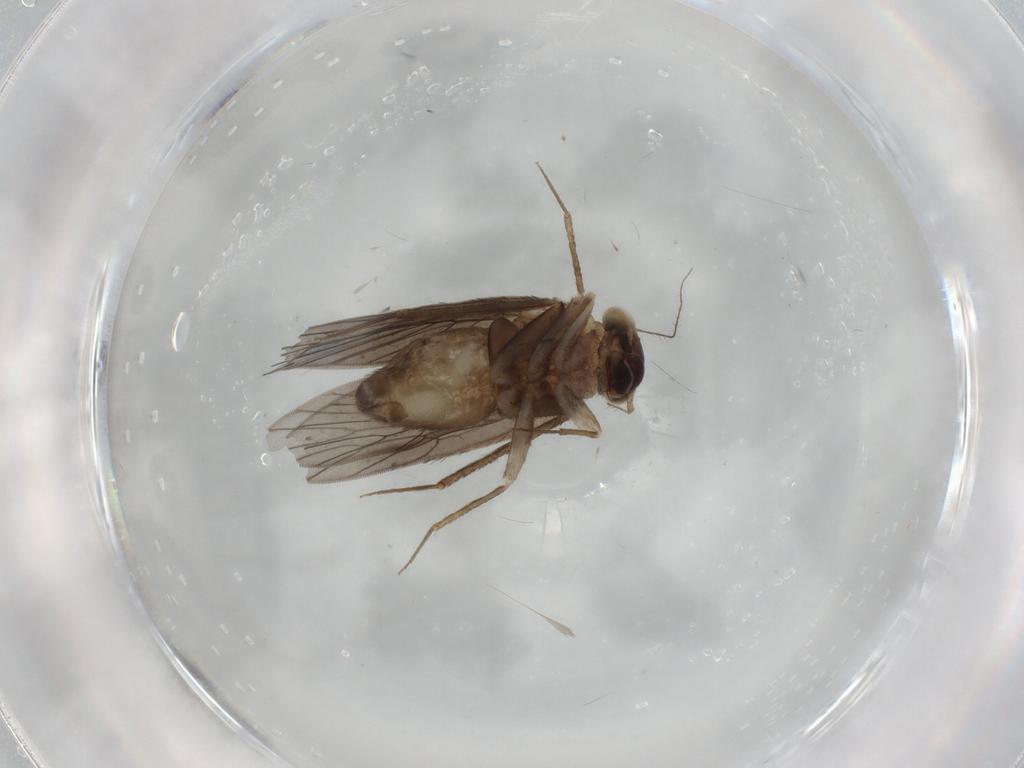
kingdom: Animalia
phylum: Arthropoda
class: Insecta
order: Psocodea
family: Lepidopsocidae
